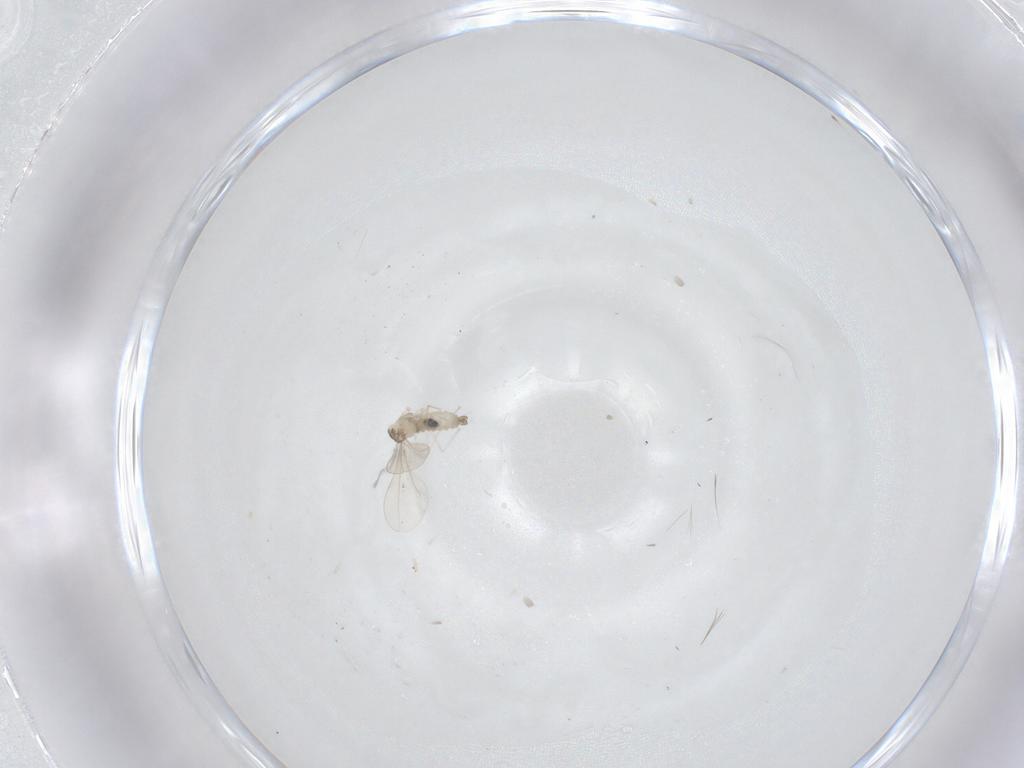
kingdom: Animalia
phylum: Arthropoda
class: Insecta
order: Diptera
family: Cecidomyiidae
